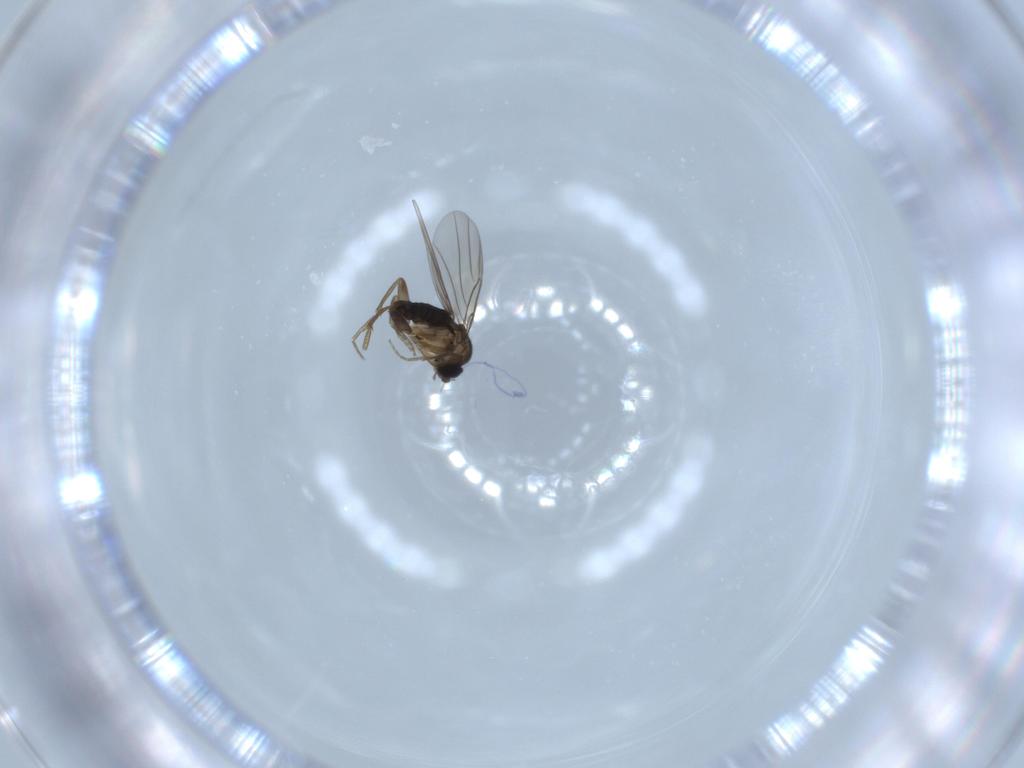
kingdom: Animalia
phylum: Arthropoda
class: Insecta
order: Diptera
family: Phoridae
